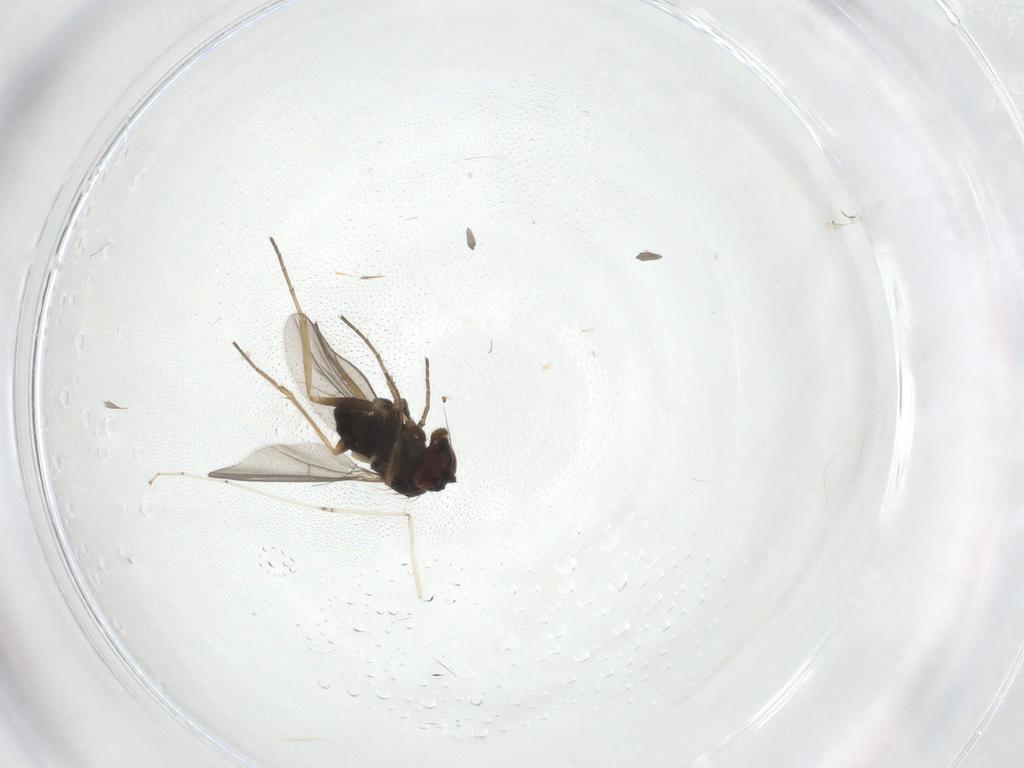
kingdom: Animalia
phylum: Arthropoda
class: Insecta
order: Diptera
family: Cecidomyiidae
